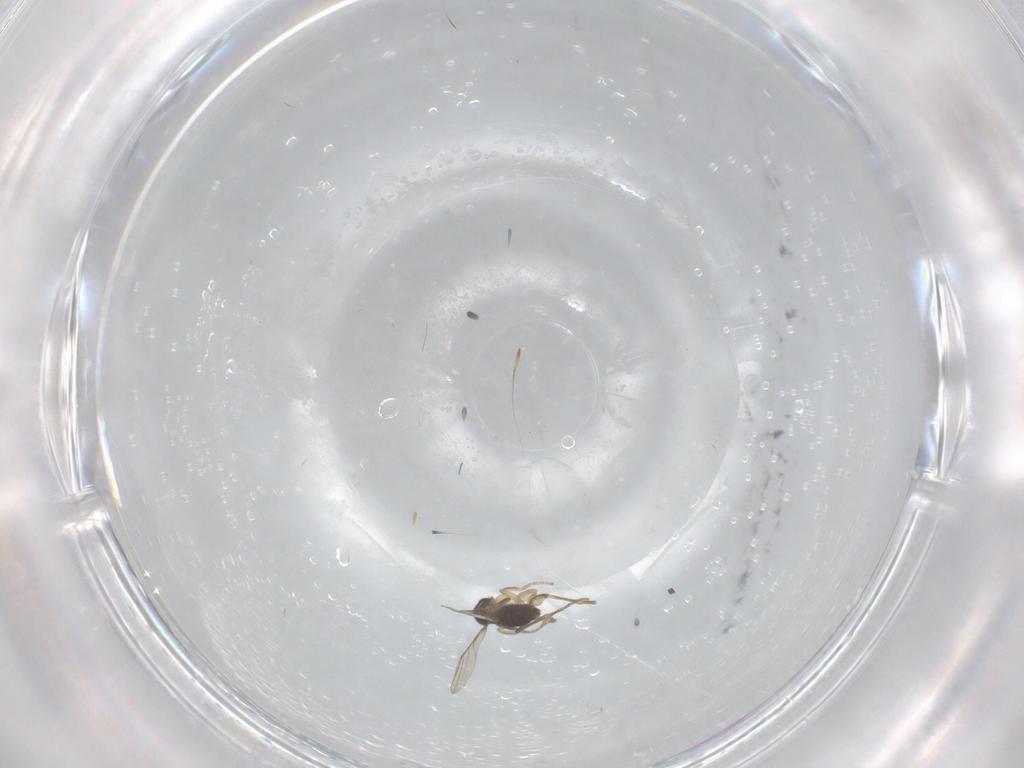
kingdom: Animalia
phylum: Arthropoda
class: Insecta
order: Diptera
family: Phoridae
